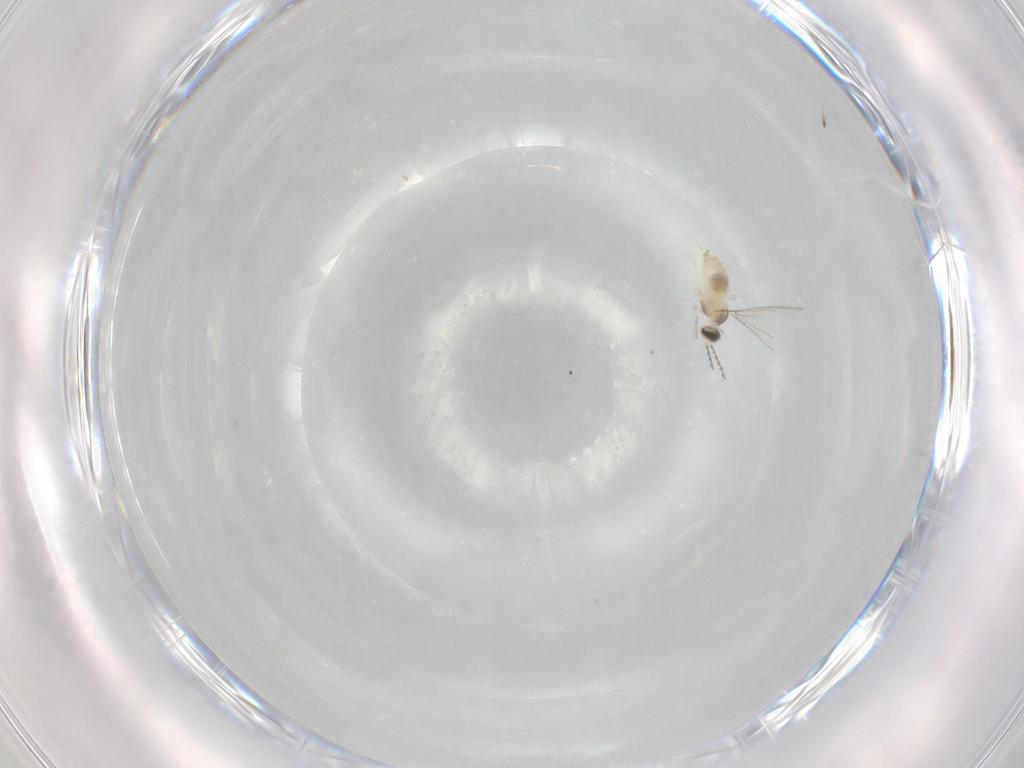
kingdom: Animalia
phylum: Arthropoda
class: Insecta
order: Diptera
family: Cecidomyiidae
